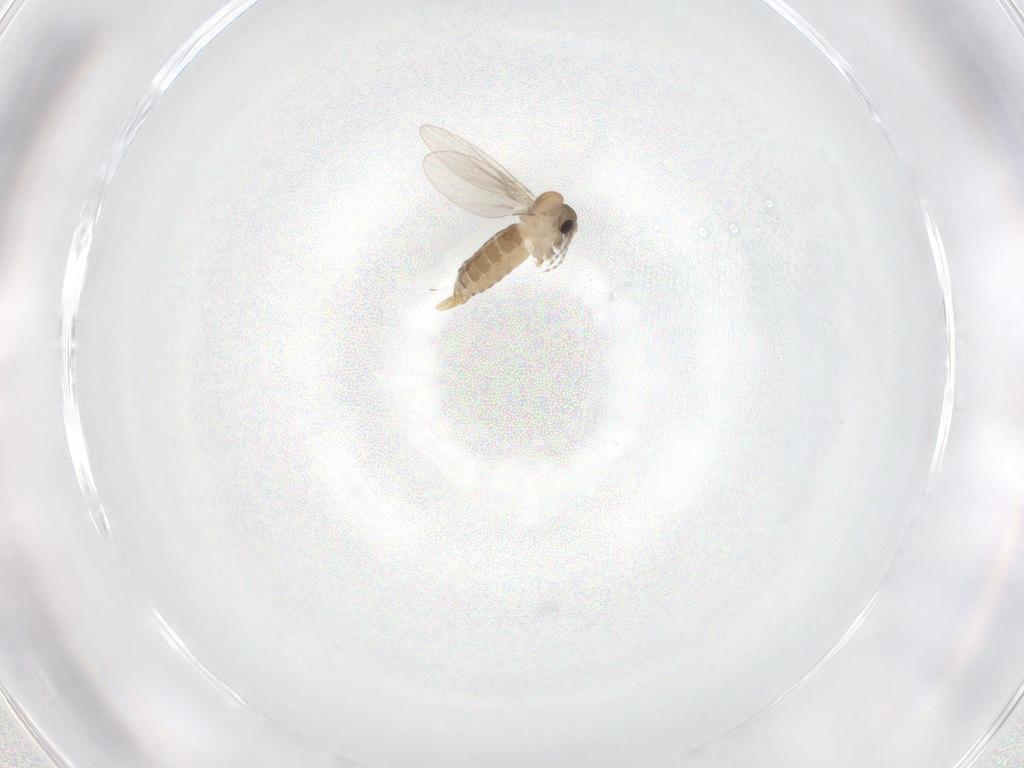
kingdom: Animalia
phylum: Arthropoda
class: Insecta
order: Diptera
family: Psychodidae
